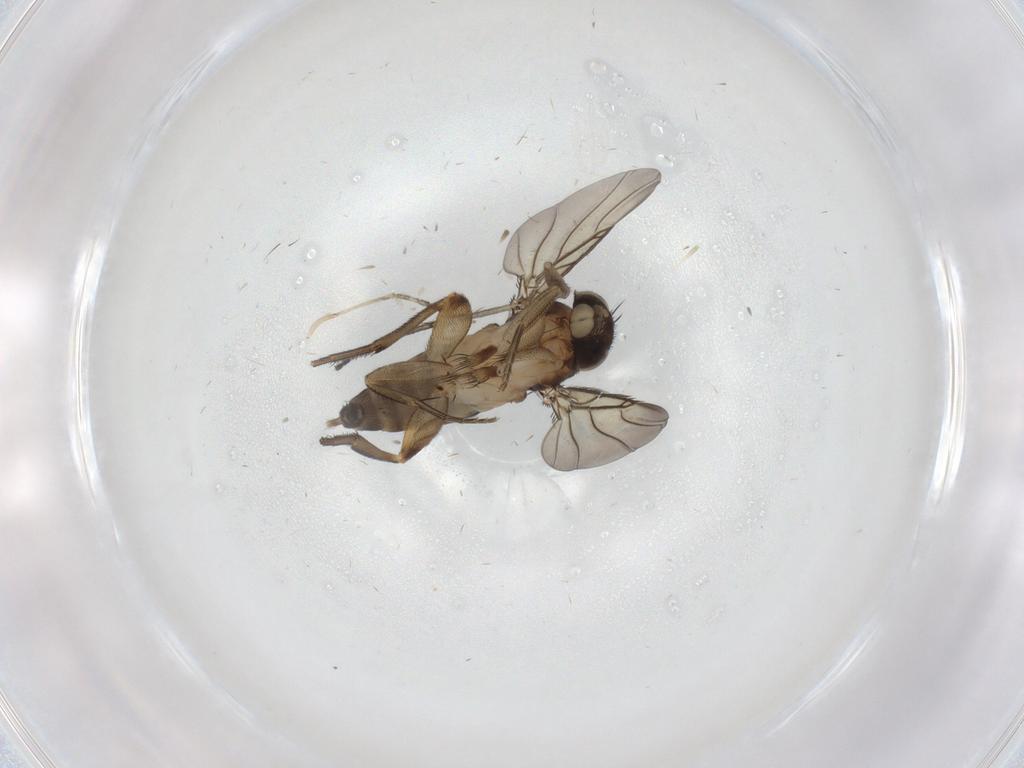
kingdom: Animalia
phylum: Arthropoda
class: Insecta
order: Diptera
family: Phoridae
